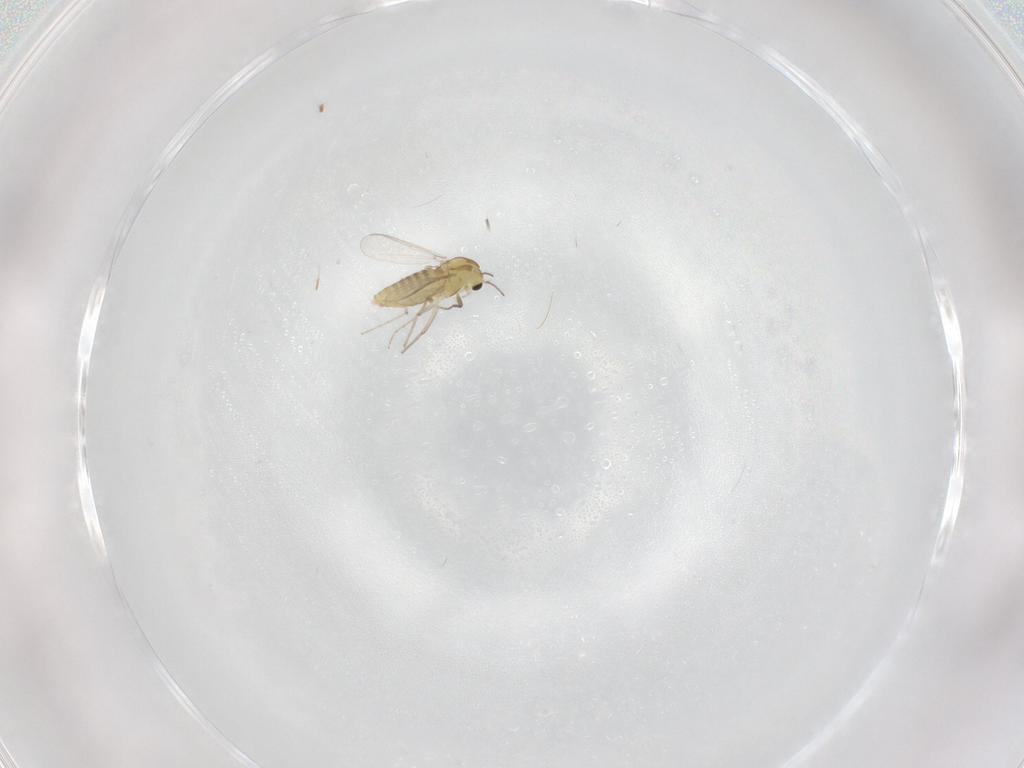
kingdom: Animalia
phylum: Arthropoda
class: Insecta
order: Diptera
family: Chironomidae
